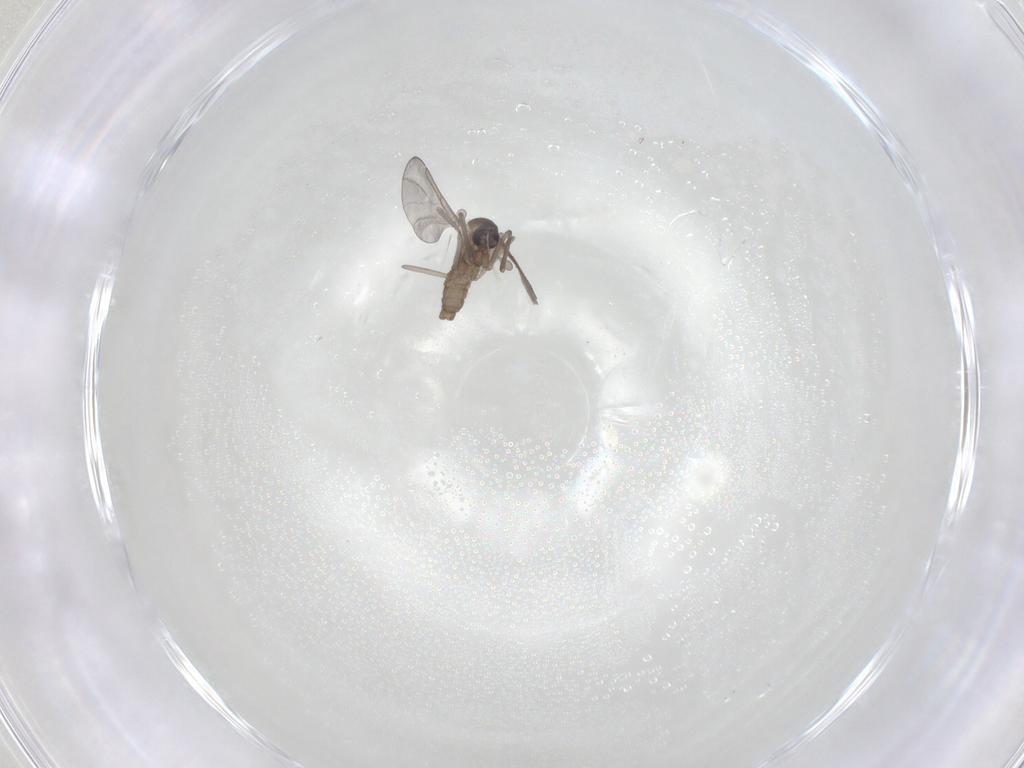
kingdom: Animalia
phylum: Arthropoda
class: Insecta
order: Diptera
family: Cecidomyiidae
